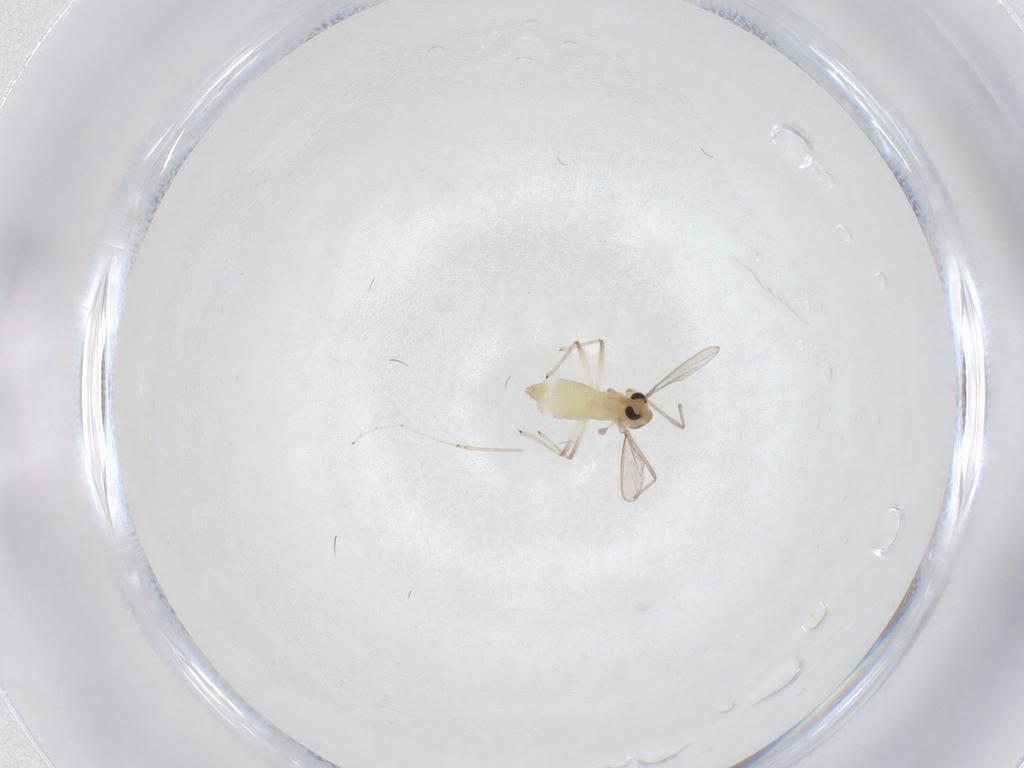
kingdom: Animalia
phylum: Arthropoda
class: Insecta
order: Diptera
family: Chironomidae
